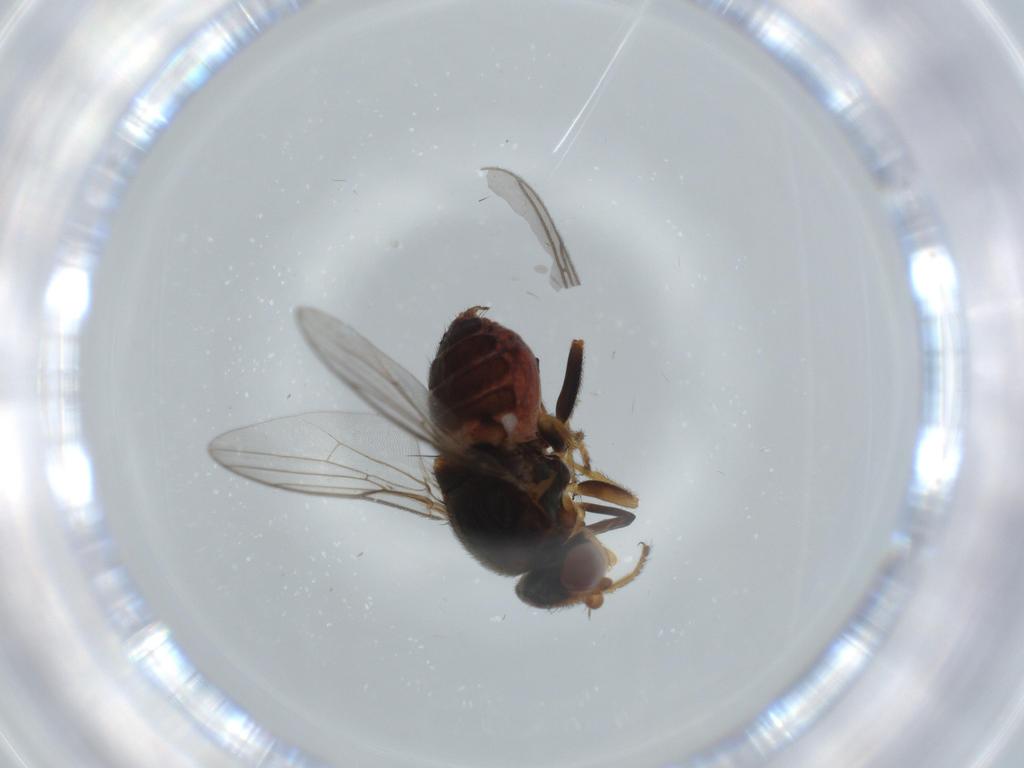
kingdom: Animalia
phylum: Arthropoda
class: Insecta
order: Diptera
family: Chloropidae
